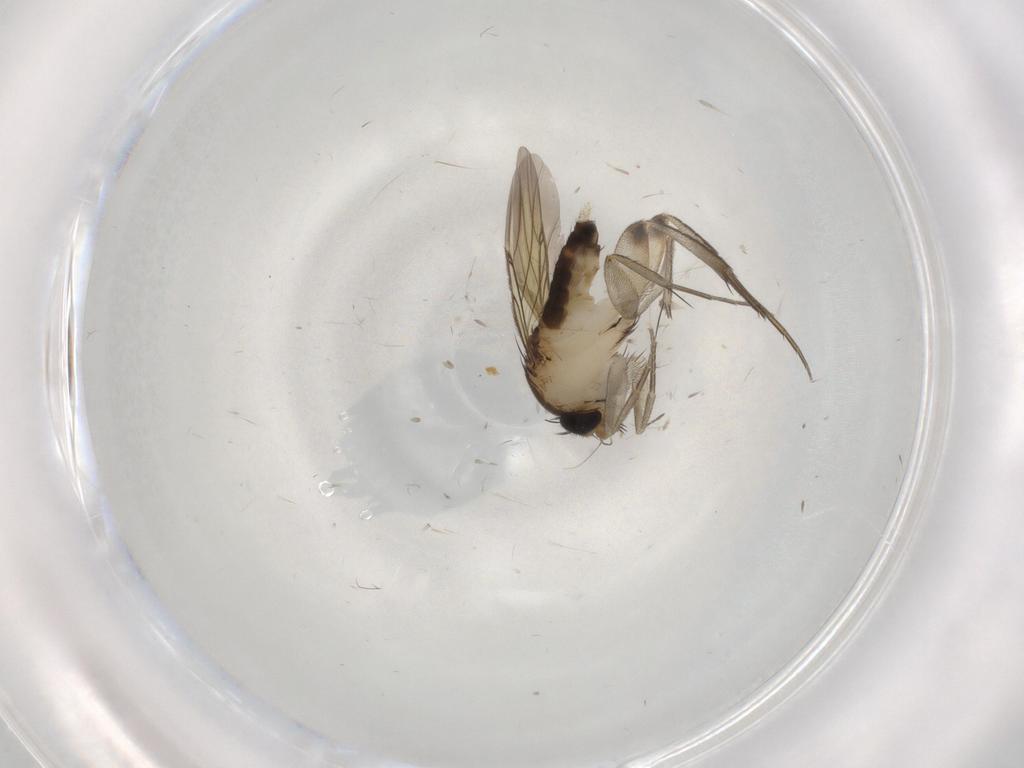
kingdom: Animalia
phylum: Arthropoda
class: Insecta
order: Diptera
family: Phoridae
